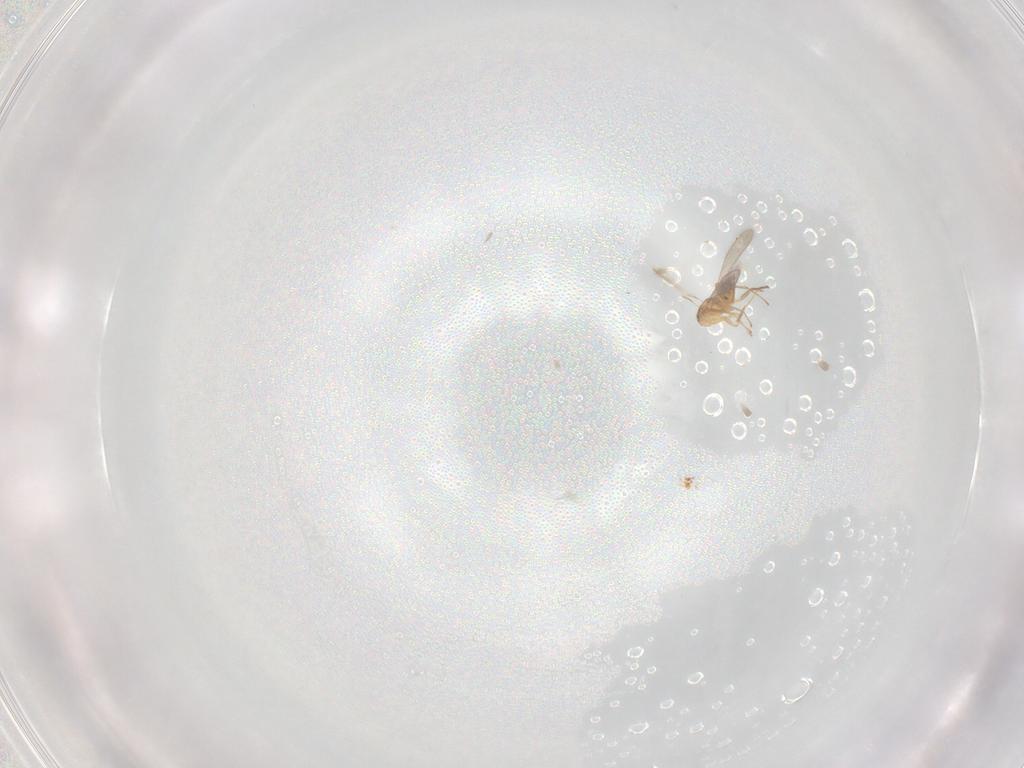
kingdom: Animalia
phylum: Arthropoda
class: Insecta
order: Hymenoptera
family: Mymaridae
